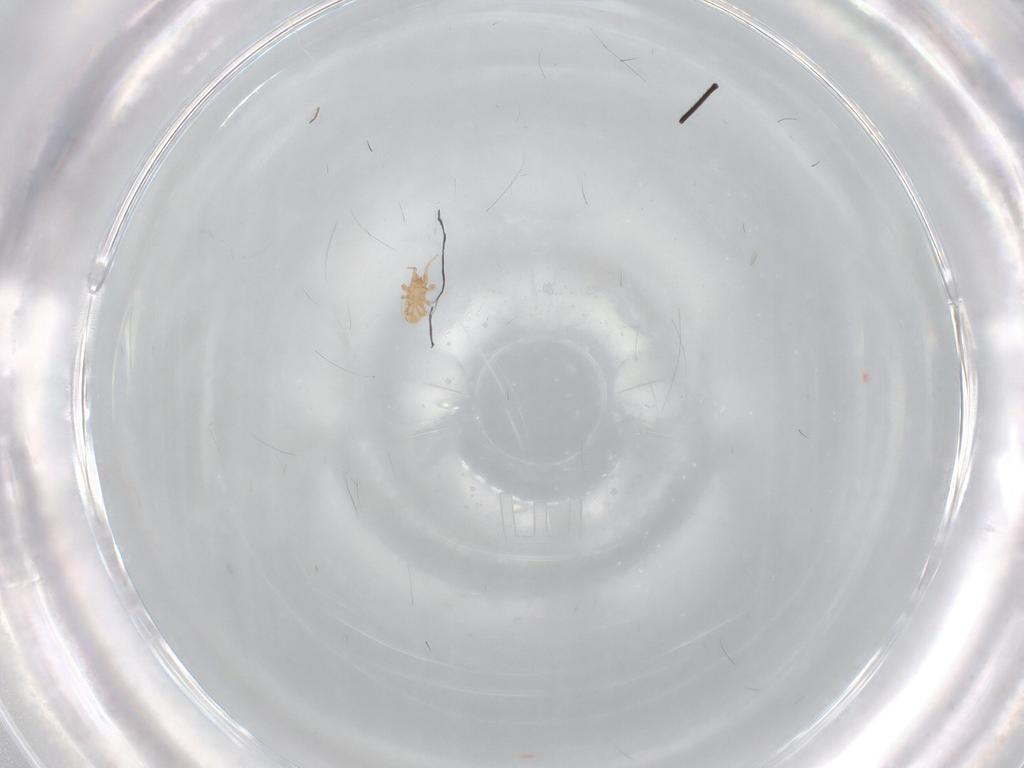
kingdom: Animalia
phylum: Arthropoda
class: Arachnida
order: Mesostigmata
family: Ascidae
